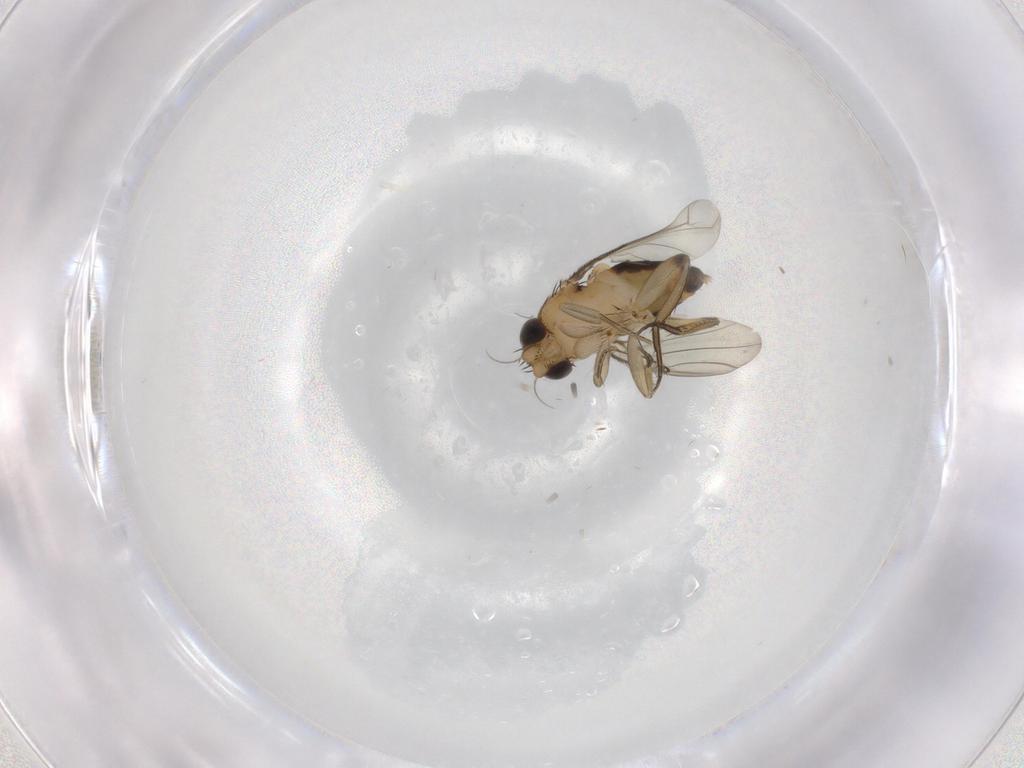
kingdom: Animalia
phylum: Arthropoda
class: Insecta
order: Diptera
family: Phoridae
